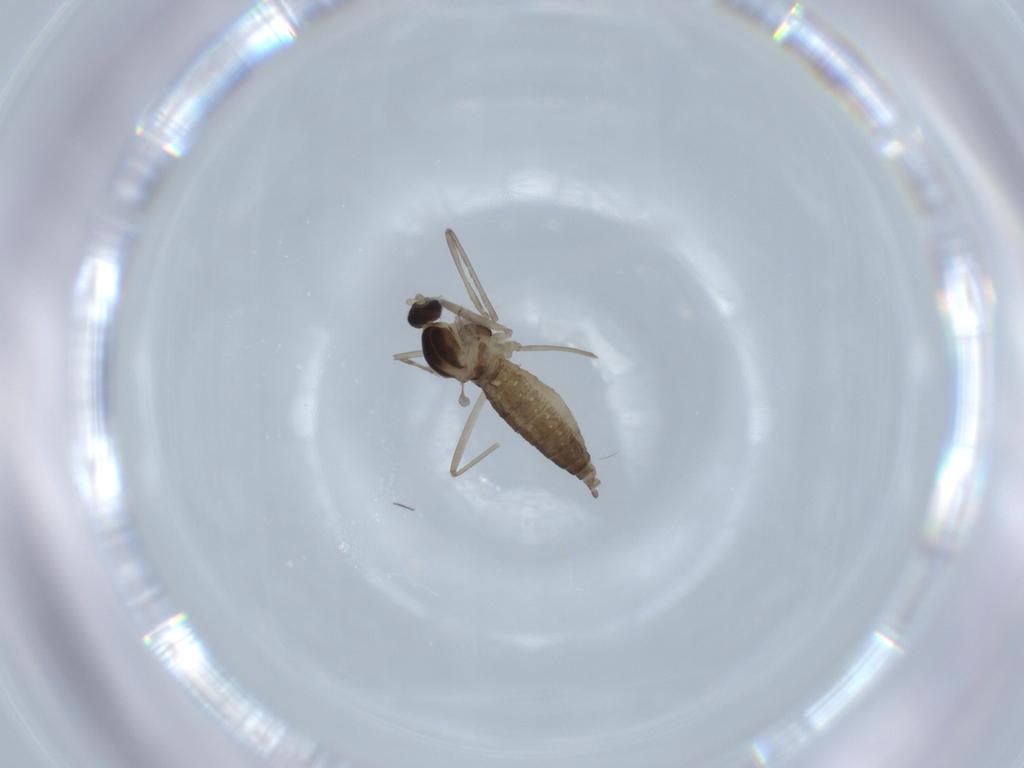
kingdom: Animalia
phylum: Arthropoda
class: Insecta
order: Diptera
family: Cecidomyiidae
